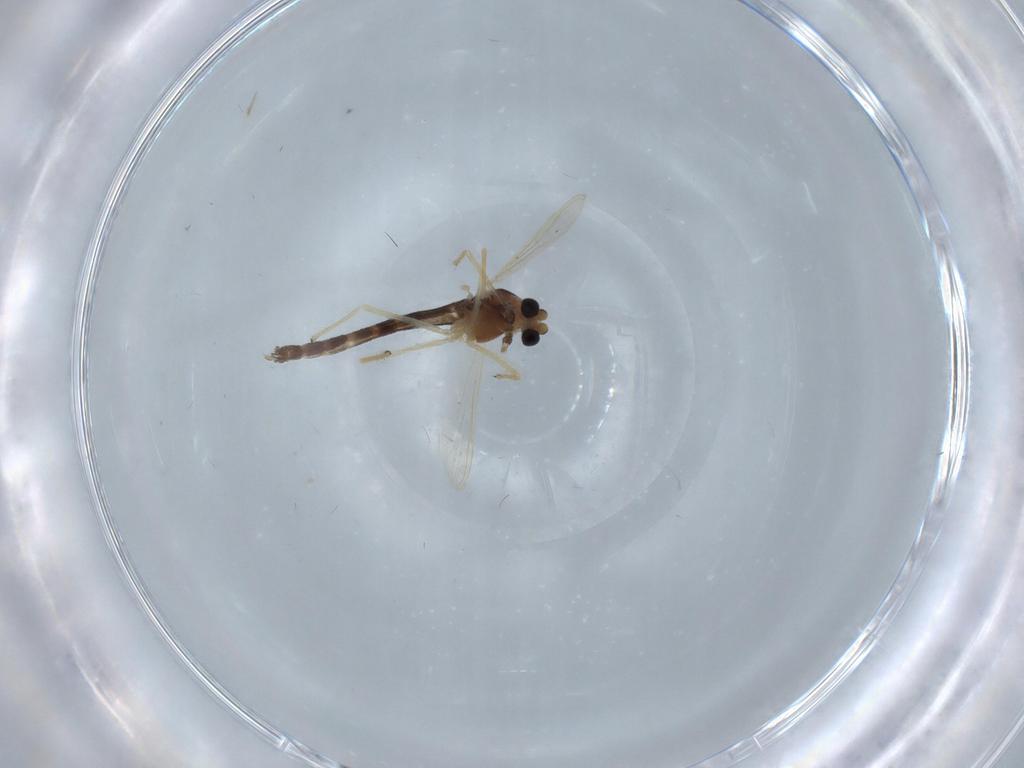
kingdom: Animalia
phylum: Arthropoda
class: Insecta
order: Diptera
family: Chironomidae
